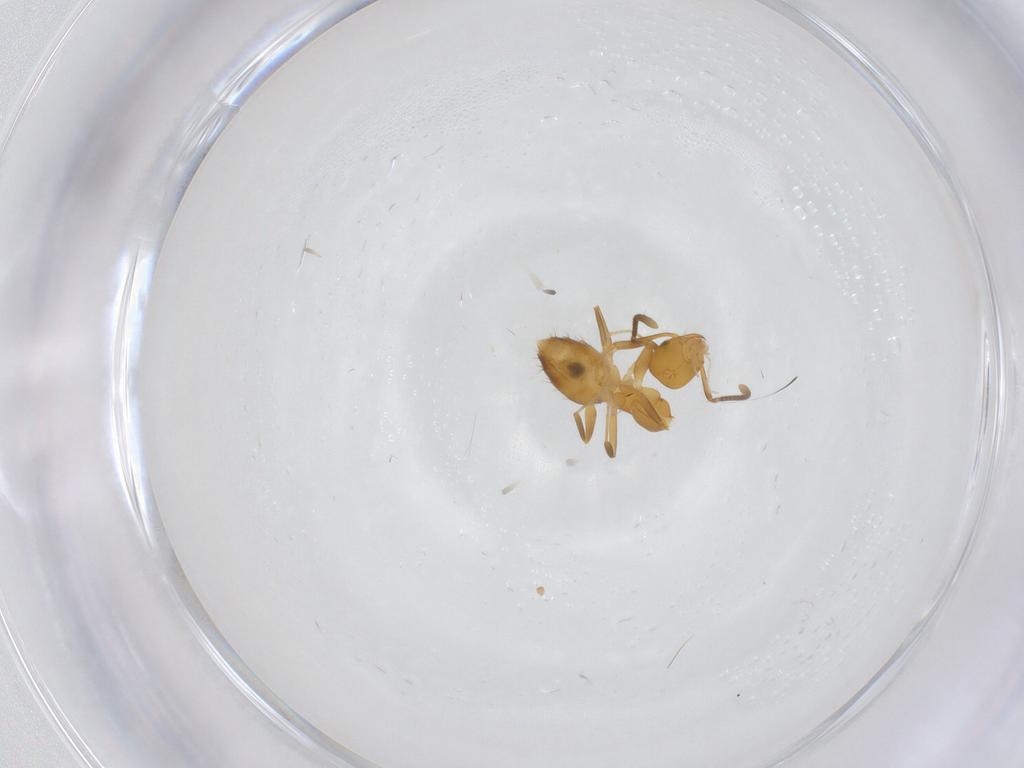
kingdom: Animalia
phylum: Arthropoda
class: Insecta
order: Hymenoptera
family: Formicidae
